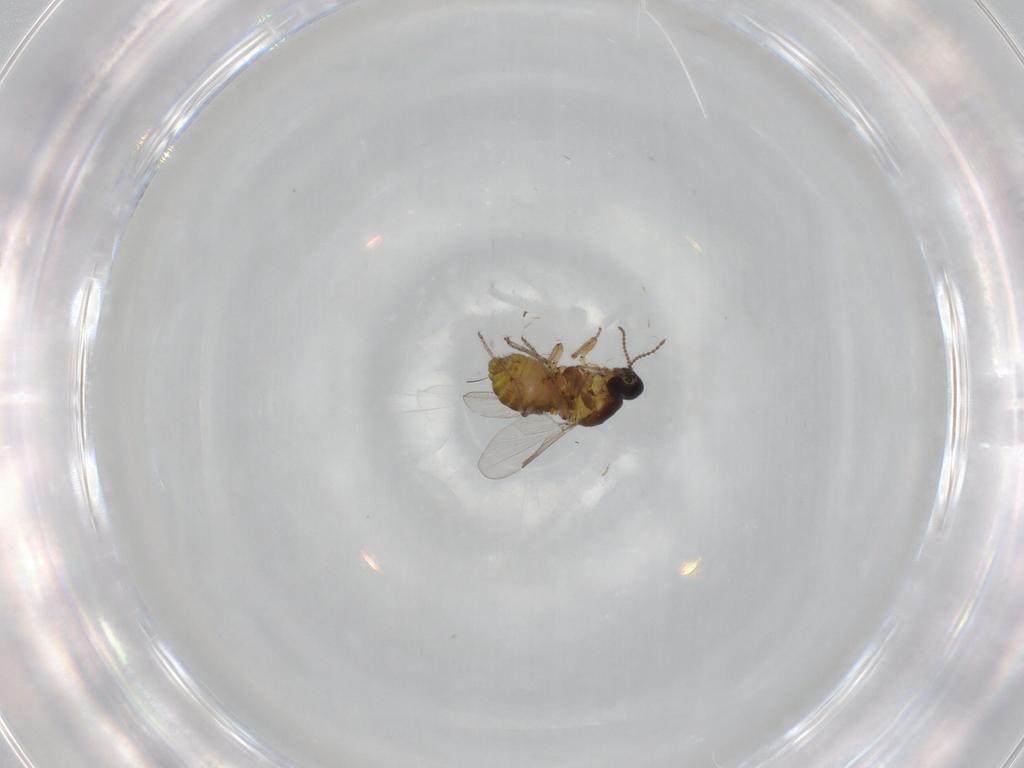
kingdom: Animalia
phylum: Arthropoda
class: Insecta
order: Diptera
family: Ceratopogonidae
